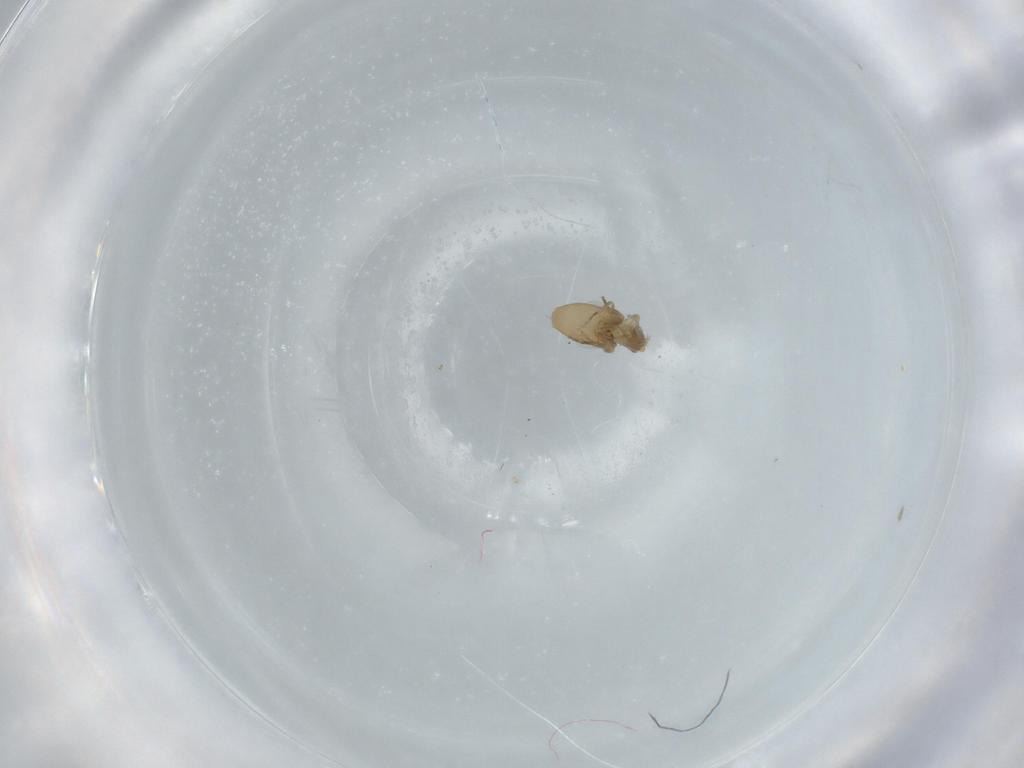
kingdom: Animalia
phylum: Arthropoda
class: Insecta
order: Diptera
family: Phoridae
